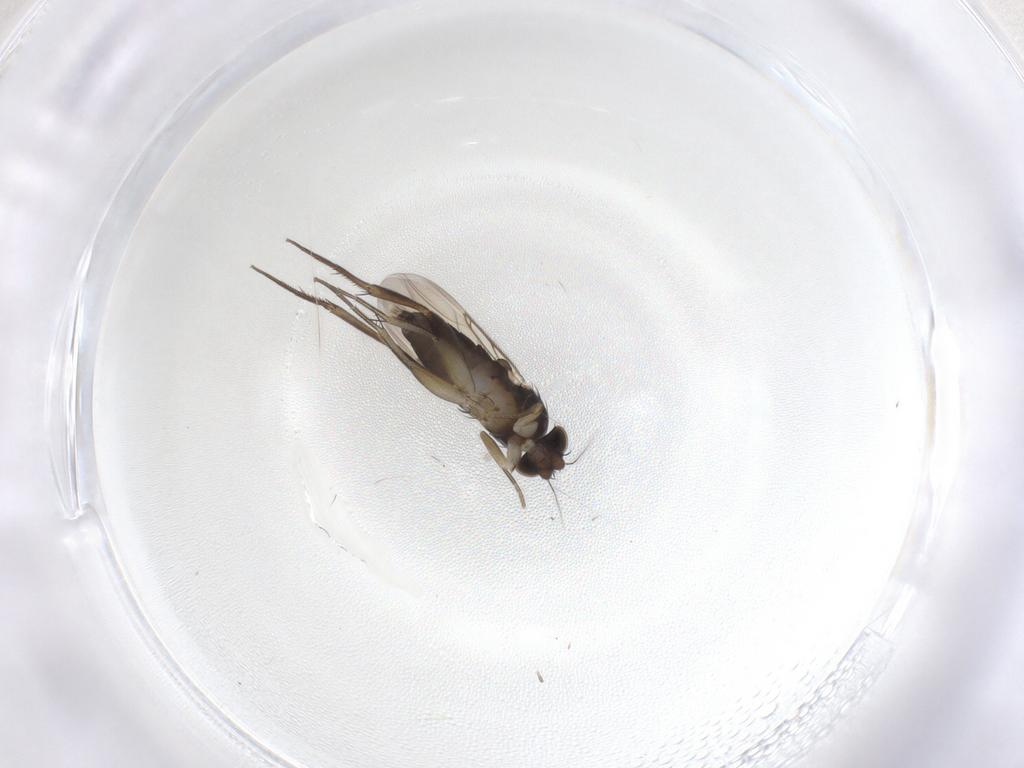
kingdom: Animalia
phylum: Arthropoda
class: Insecta
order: Diptera
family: Phoridae
